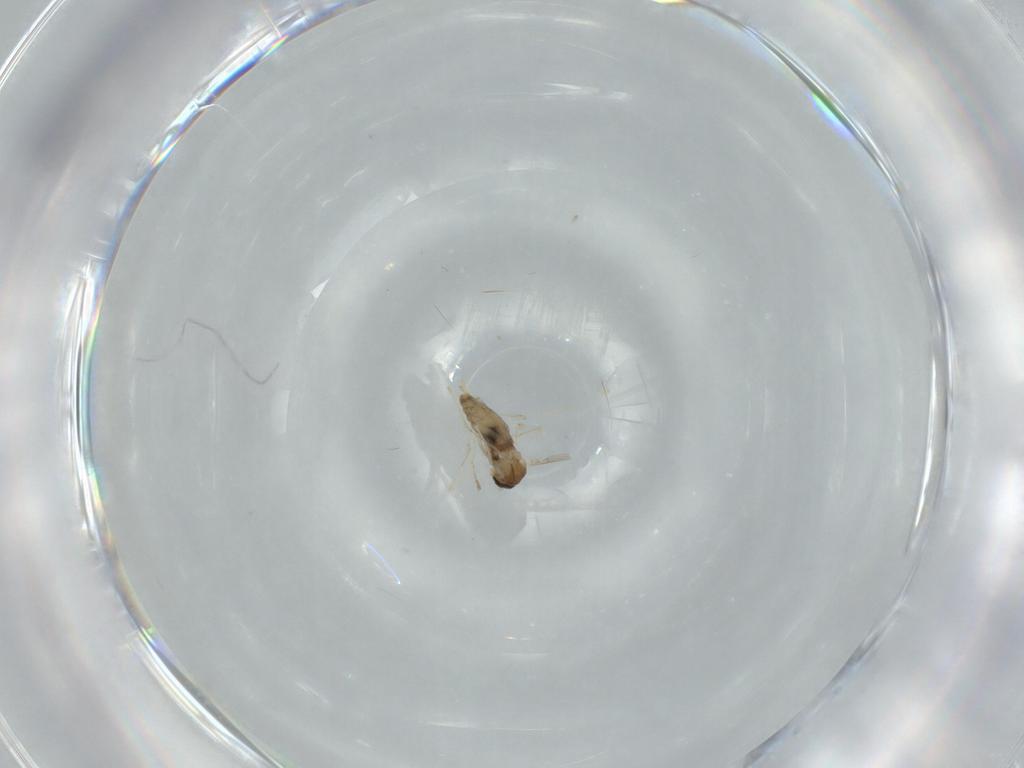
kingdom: Animalia
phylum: Arthropoda
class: Insecta
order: Diptera
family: Cecidomyiidae
